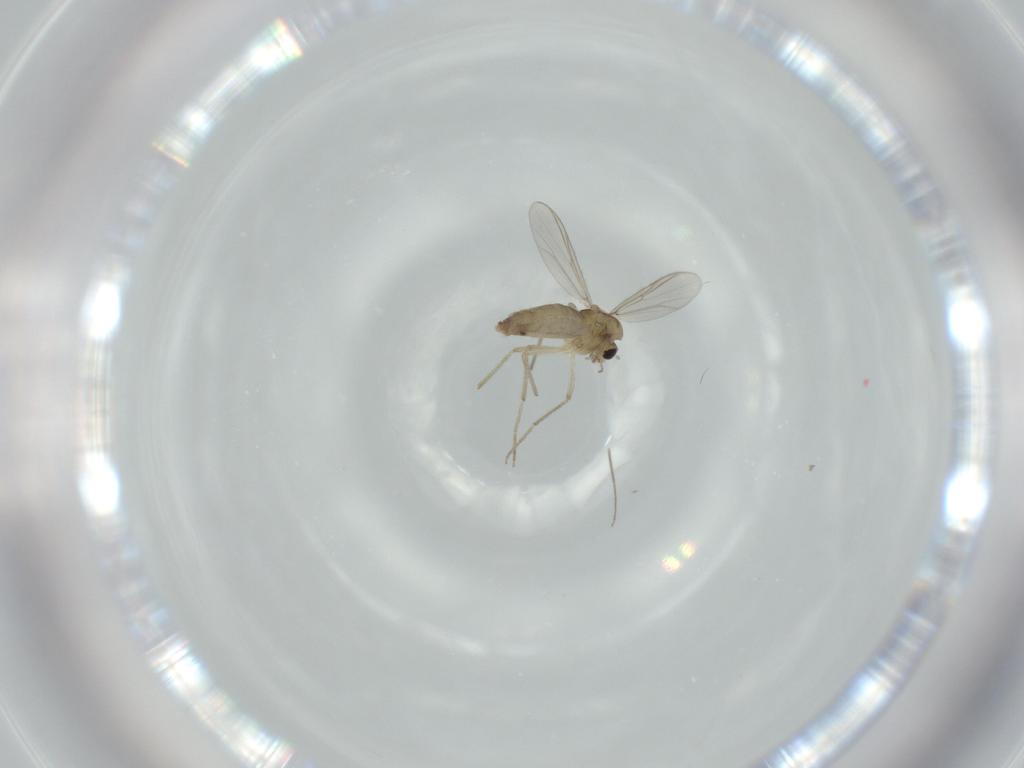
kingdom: Animalia
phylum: Arthropoda
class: Insecta
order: Diptera
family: Chironomidae
